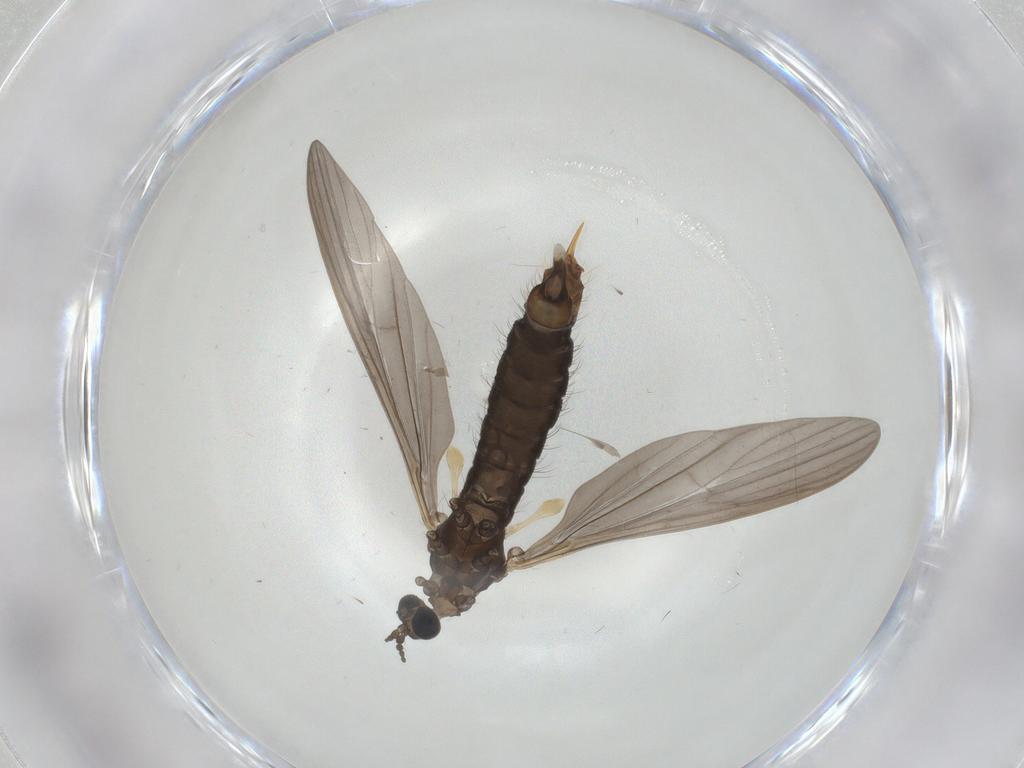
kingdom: Animalia
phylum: Arthropoda
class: Insecta
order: Diptera
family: Limoniidae
